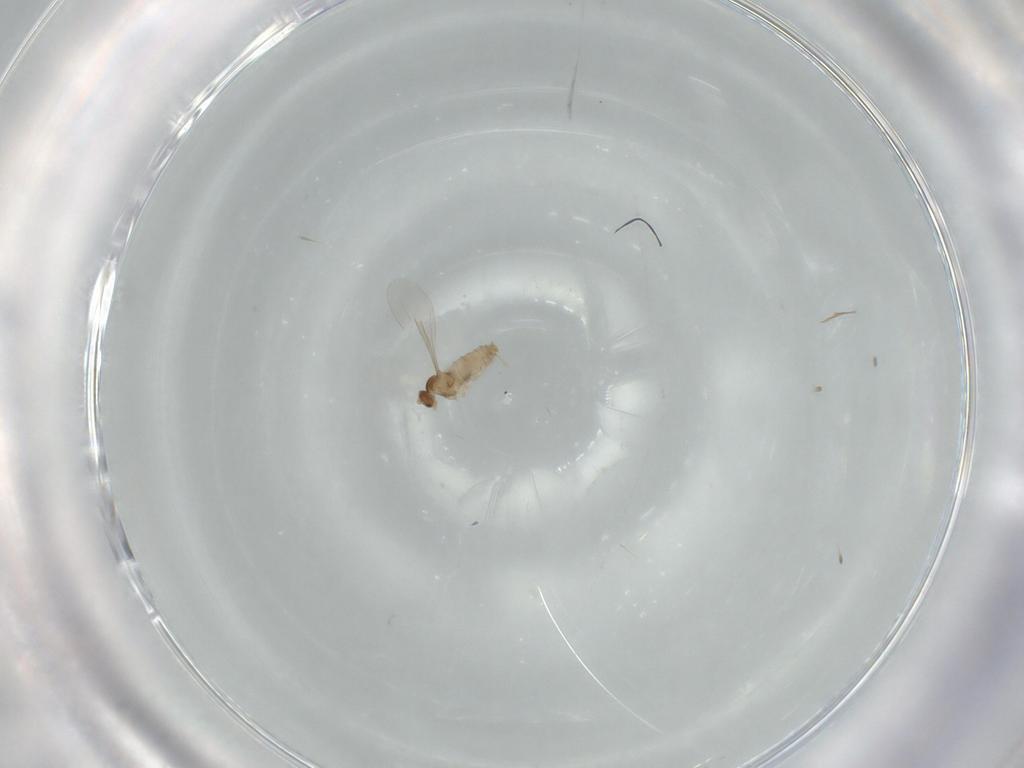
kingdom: Animalia
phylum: Arthropoda
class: Insecta
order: Diptera
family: Cecidomyiidae
